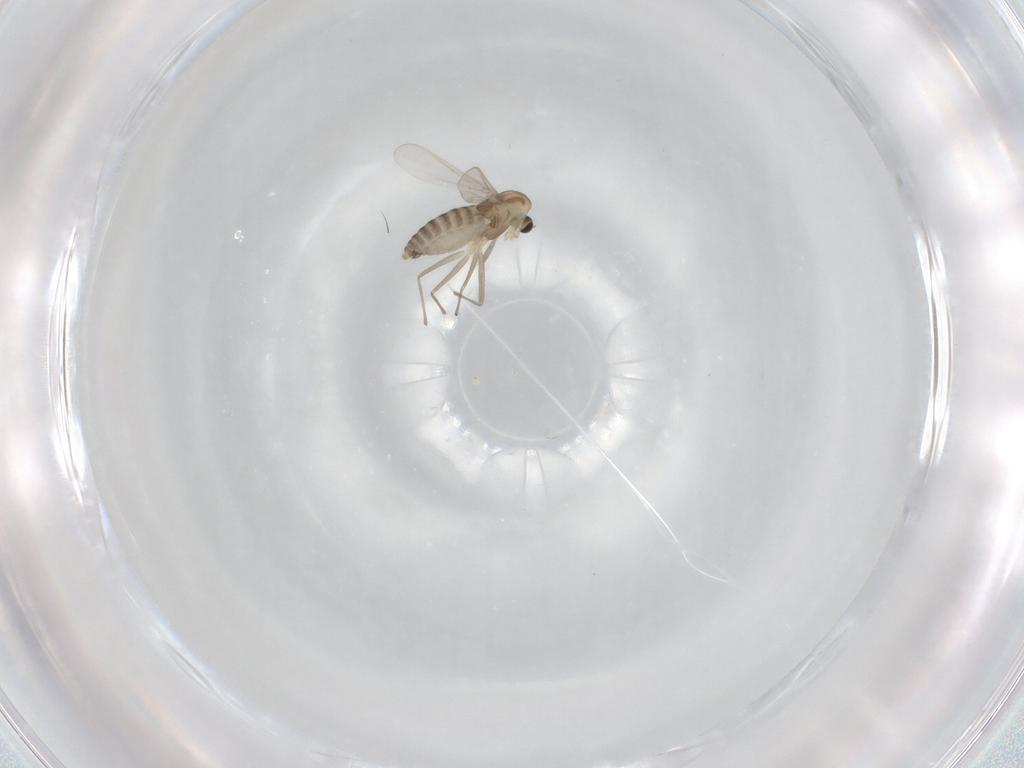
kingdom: Animalia
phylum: Arthropoda
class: Insecta
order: Diptera
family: Chironomidae
